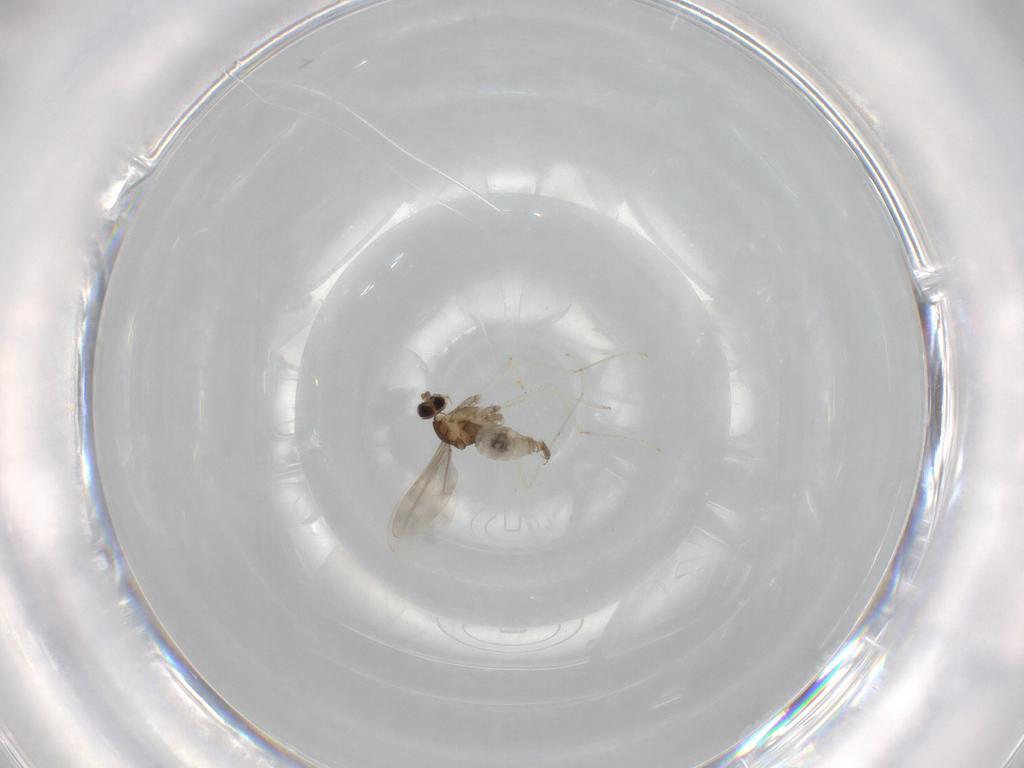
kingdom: Animalia
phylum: Arthropoda
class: Insecta
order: Diptera
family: Cecidomyiidae
